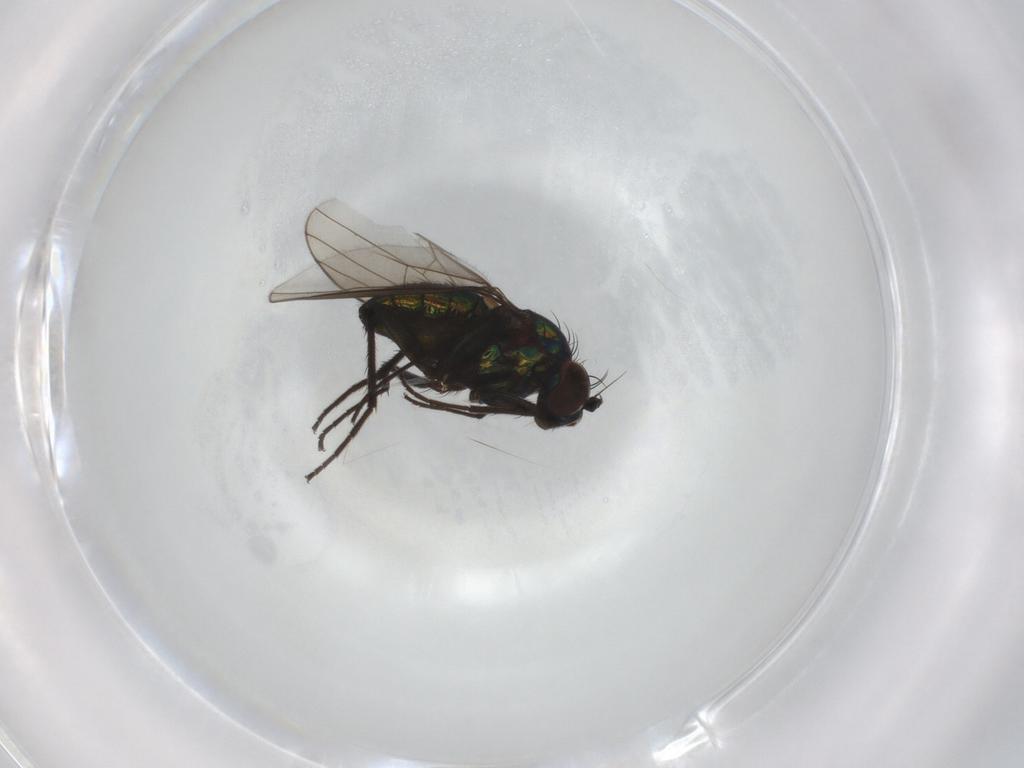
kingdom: Animalia
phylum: Arthropoda
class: Insecta
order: Diptera
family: Dolichopodidae
